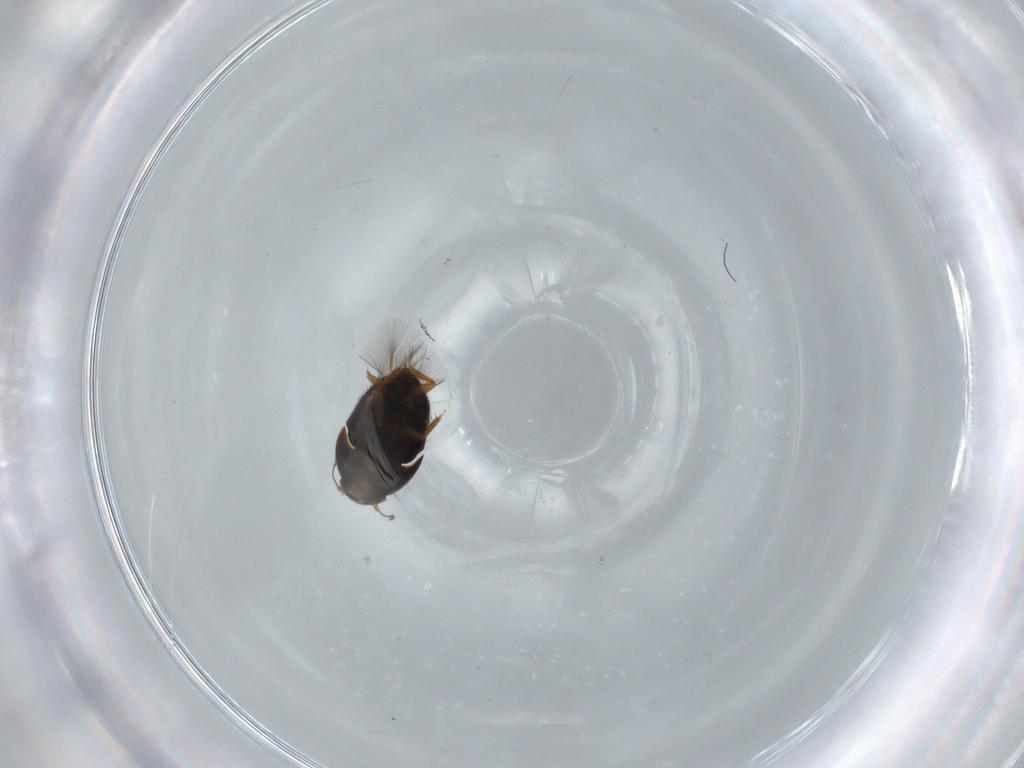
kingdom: Animalia
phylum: Arthropoda
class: Insecta
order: Coleoptera
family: Ptiliidae
